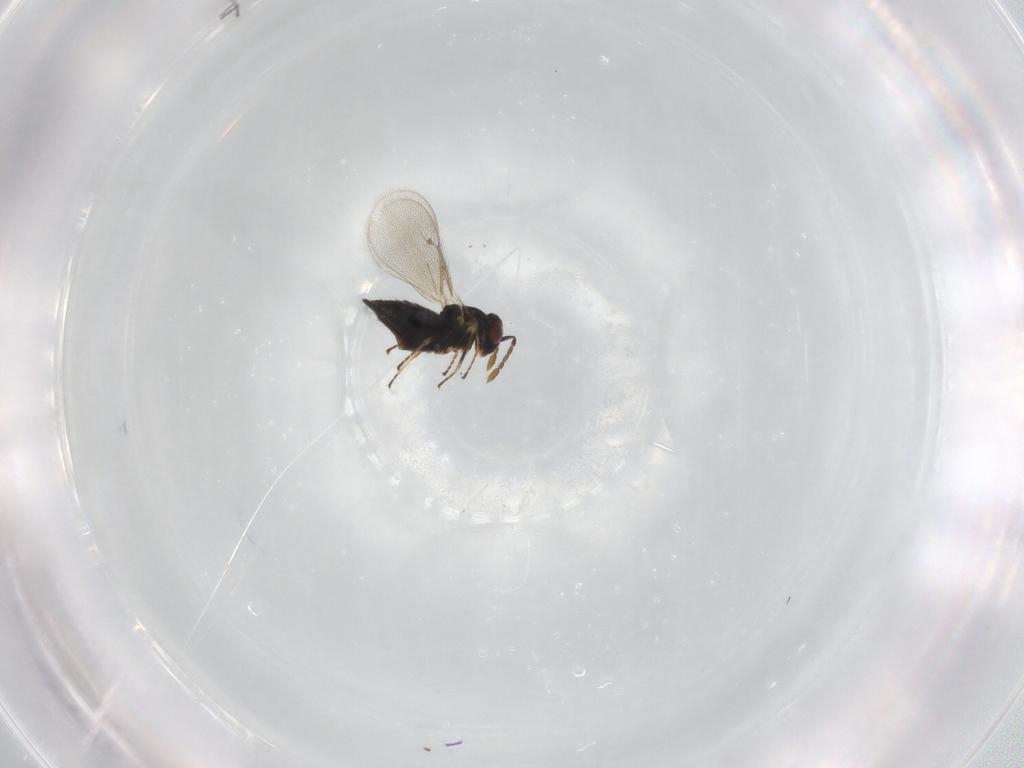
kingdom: Animalia
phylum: Arthropoda
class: Insecta
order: Hymenoptera
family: Eulophidae
